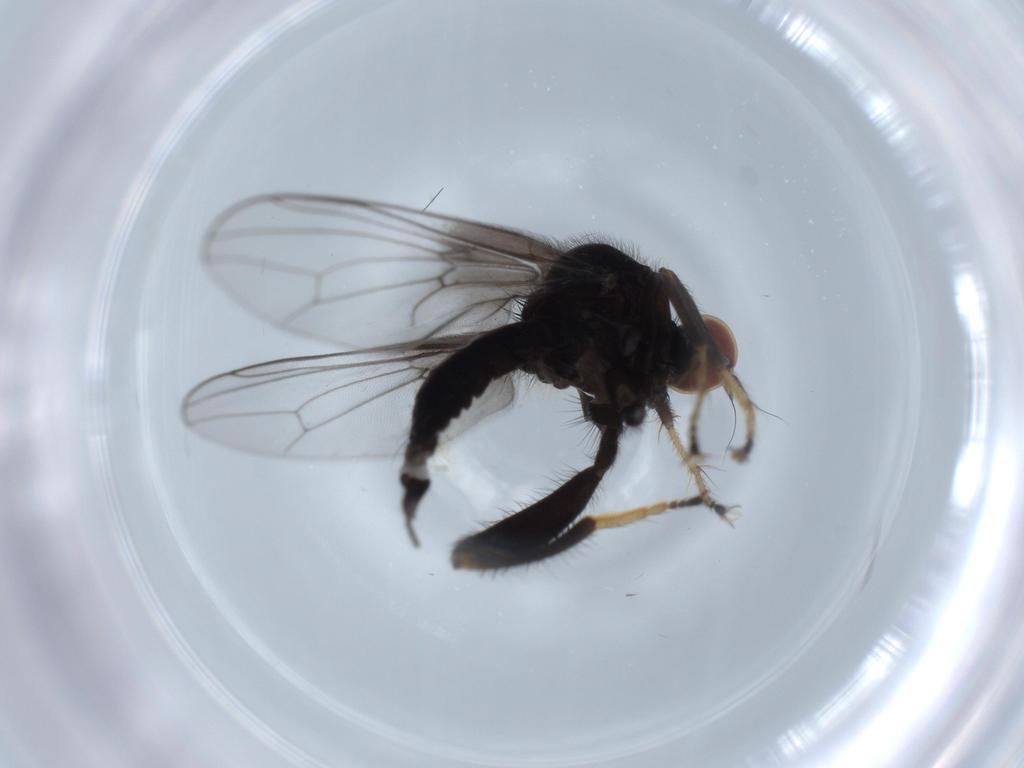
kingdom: Animalia
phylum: Arthropoda
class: Insecta
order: Diptera
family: Hybotidae
